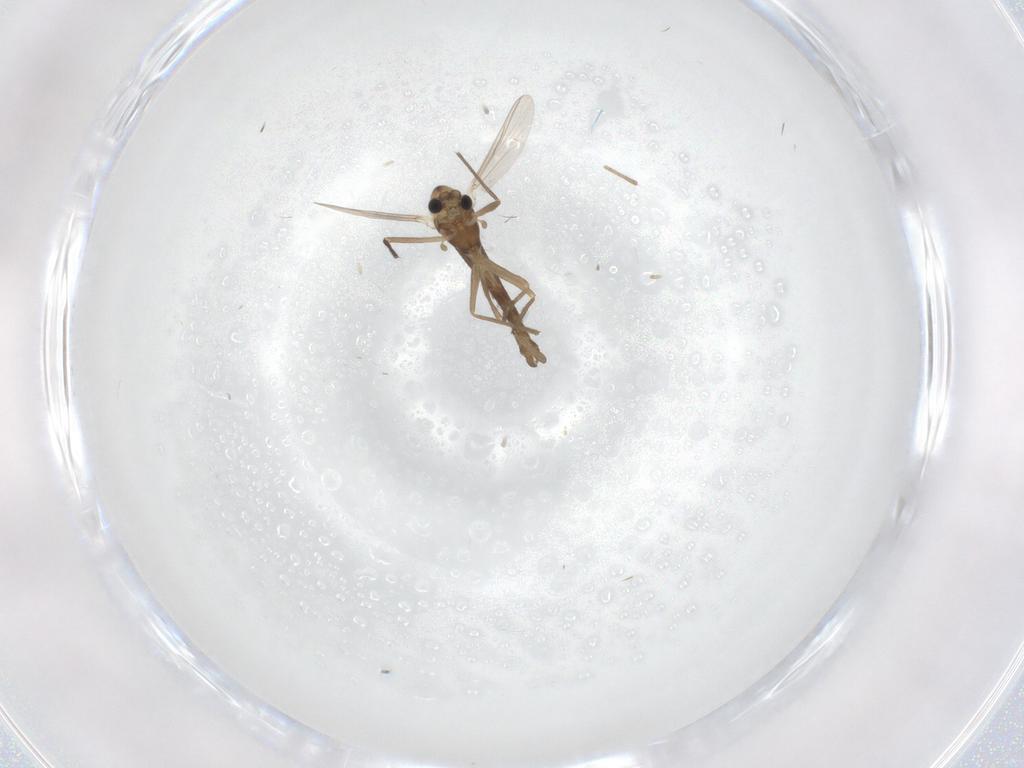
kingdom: Animalia
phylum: Arthropoda
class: Insecta
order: Diptera
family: Chironomidae
